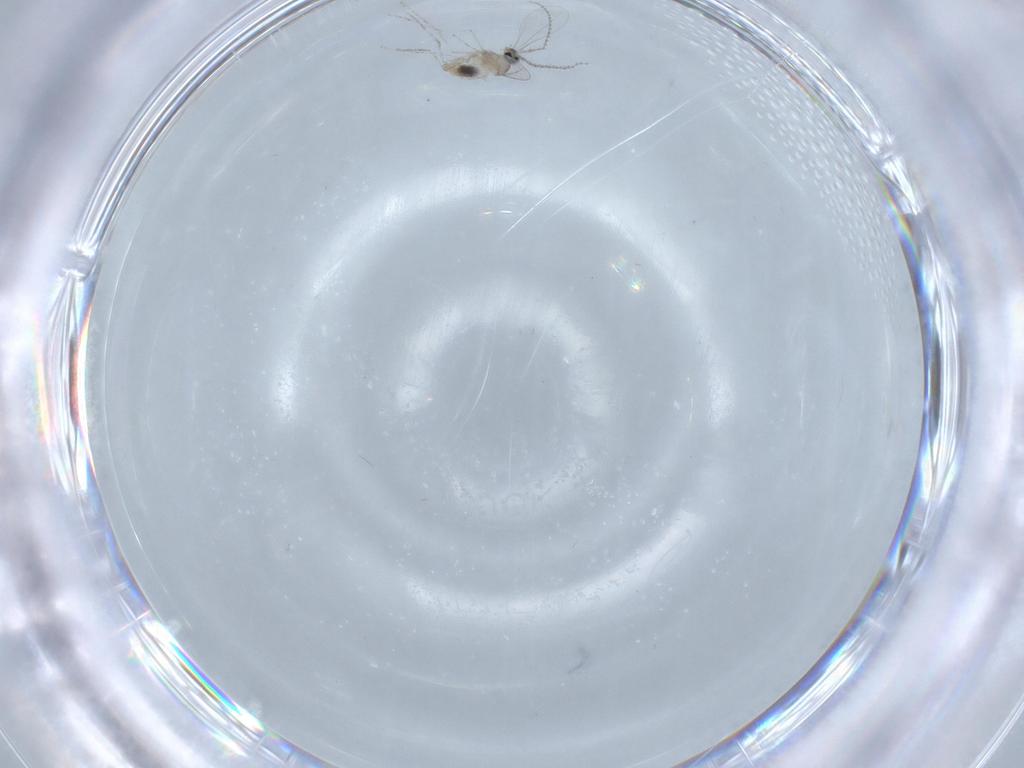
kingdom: Animalia
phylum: Arthropoda
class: Insecta
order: Diptera
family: Cecidomyiidae
